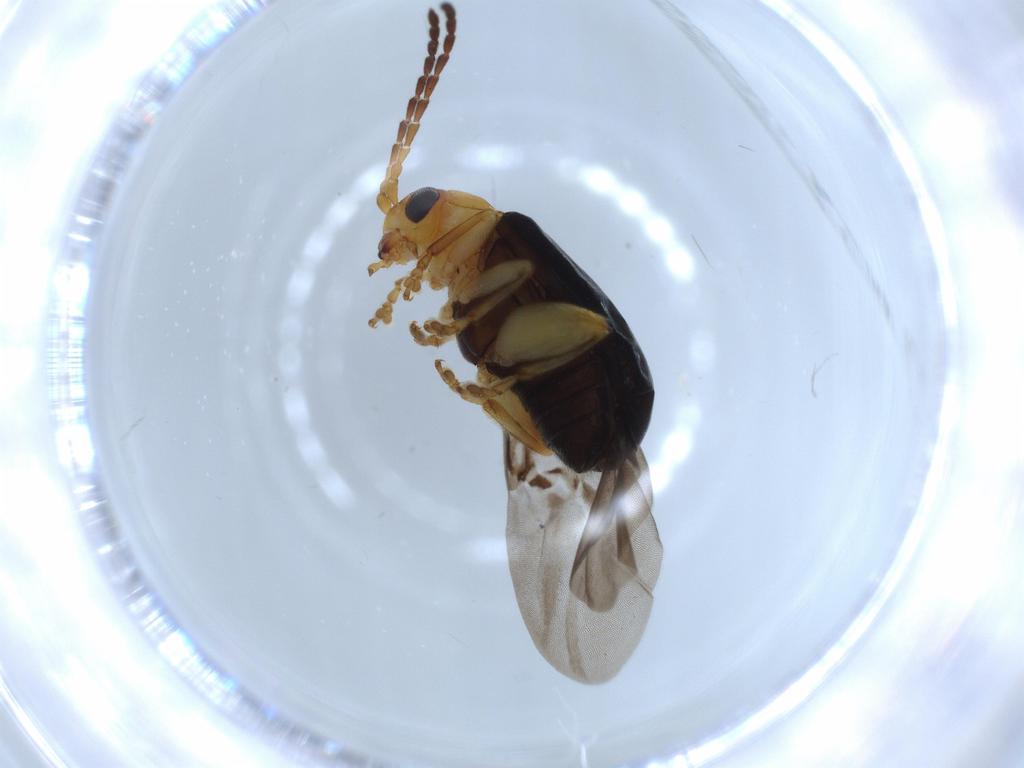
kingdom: Animalia
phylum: Arthropoda
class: Insecta
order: Coleoptera
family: Chrysomelidae
